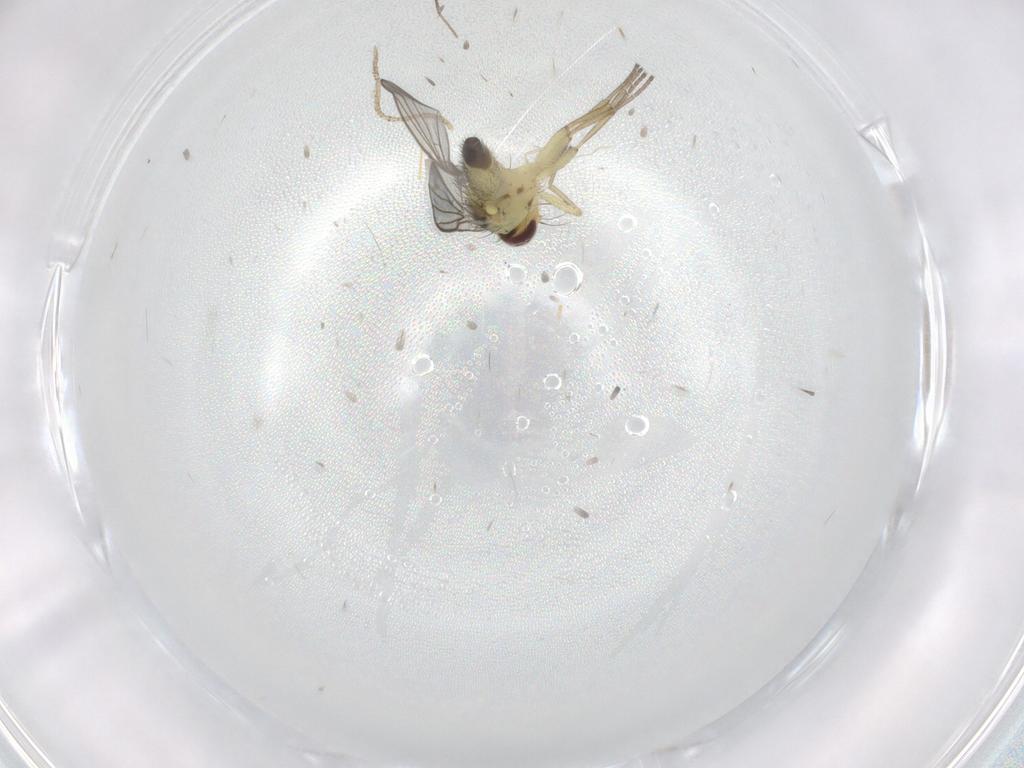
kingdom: Animalia
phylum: Arthropoda
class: Insecta
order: Diptera
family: Agromyzidae
